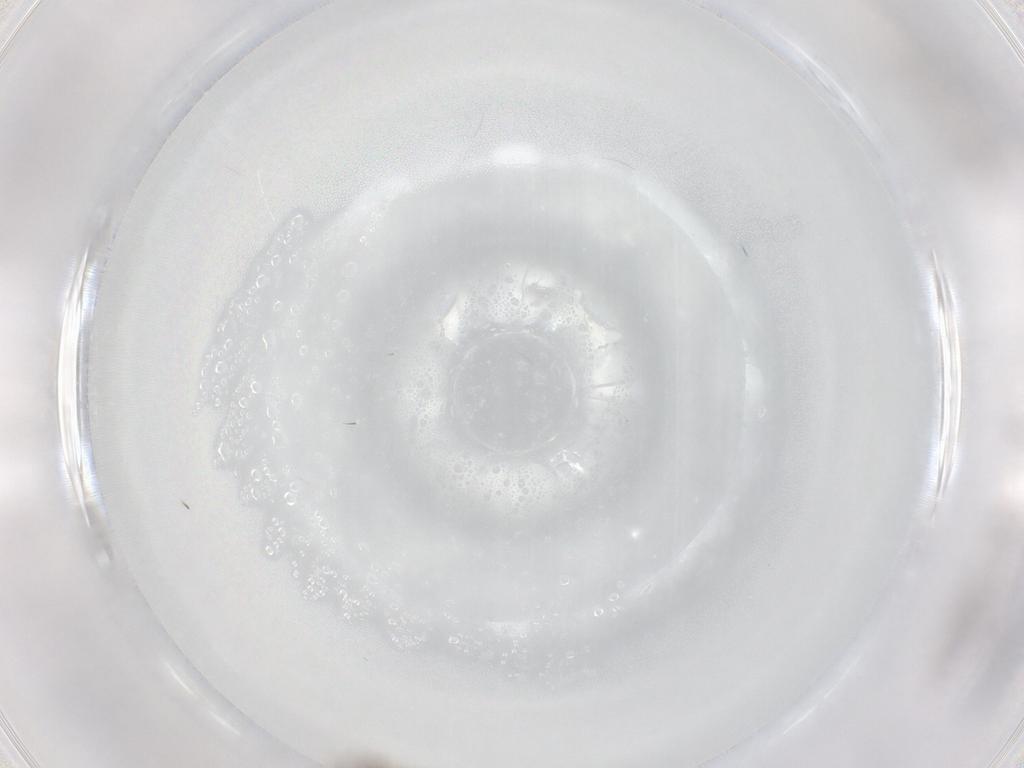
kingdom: Animalia
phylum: Arthropoda
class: Insecta
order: Diptera
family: Chironomidae
